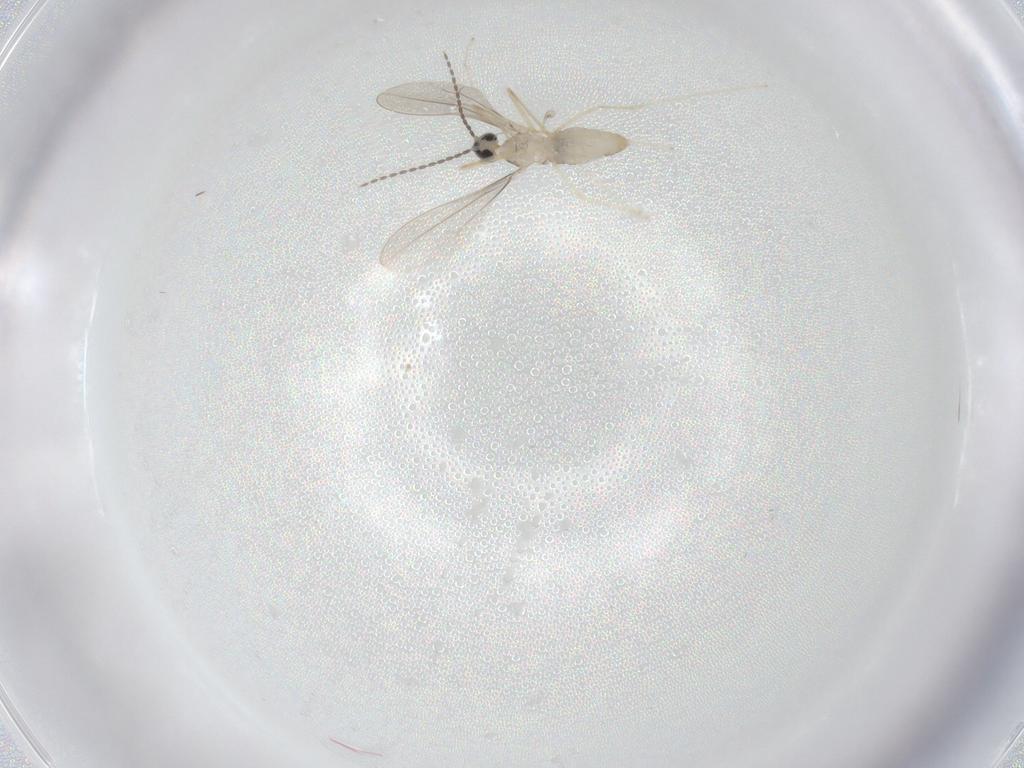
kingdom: Animalia
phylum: Arthropoda
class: Insecta
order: Diptera
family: Cecidomyiidae
